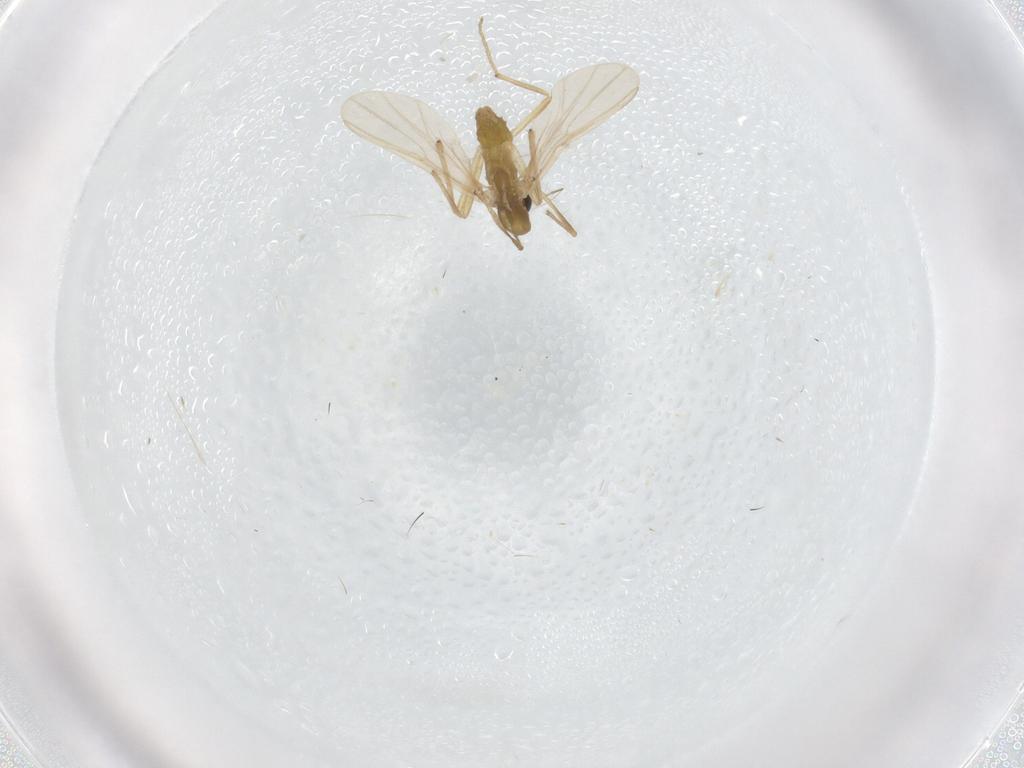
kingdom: Animalia
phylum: Arthropoda
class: Insecta
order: Diptera
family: Chironomidae
